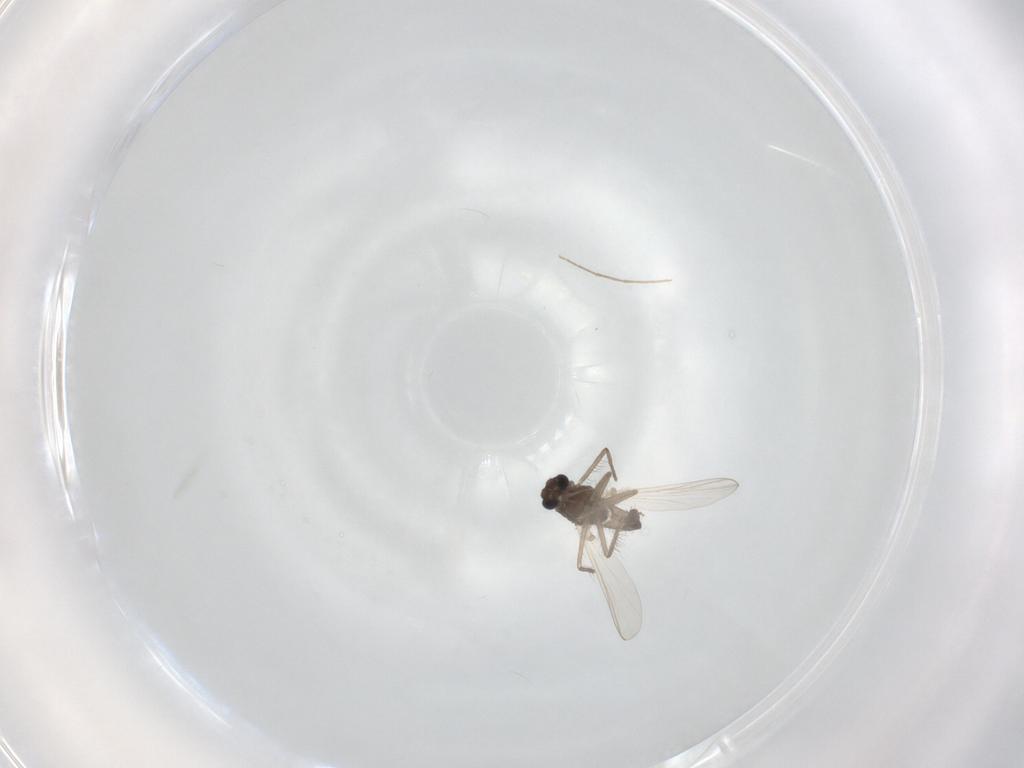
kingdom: Animalia
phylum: Arthropoda
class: Insecta
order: Diptera
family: Chironomidae
